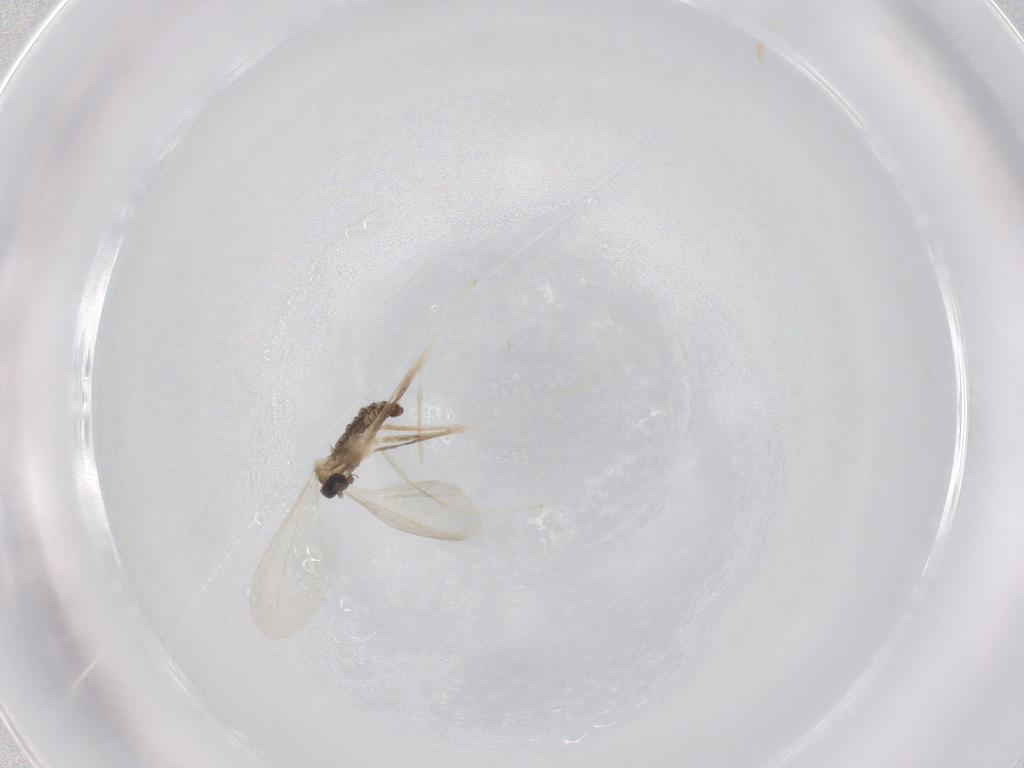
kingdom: Animalia
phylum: Arthropoda
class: Insecta
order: Diptera
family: Cecidomyiidae
